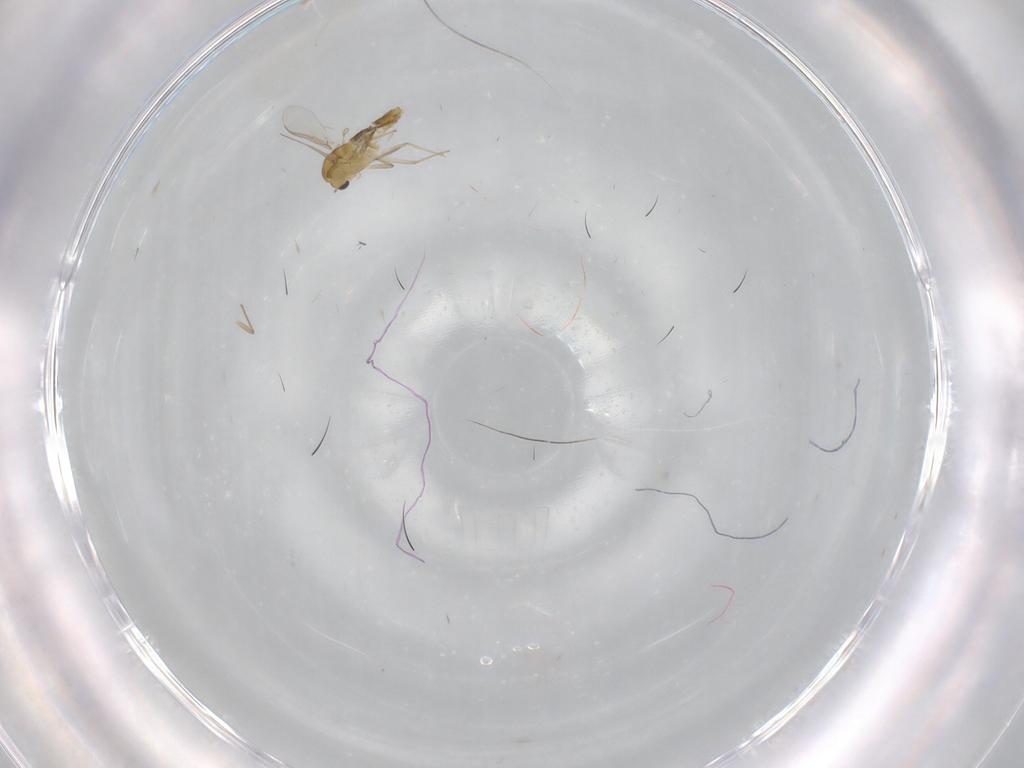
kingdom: Animalia
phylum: Arthropoda
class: Insecta
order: Diptera
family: Chironomidae
